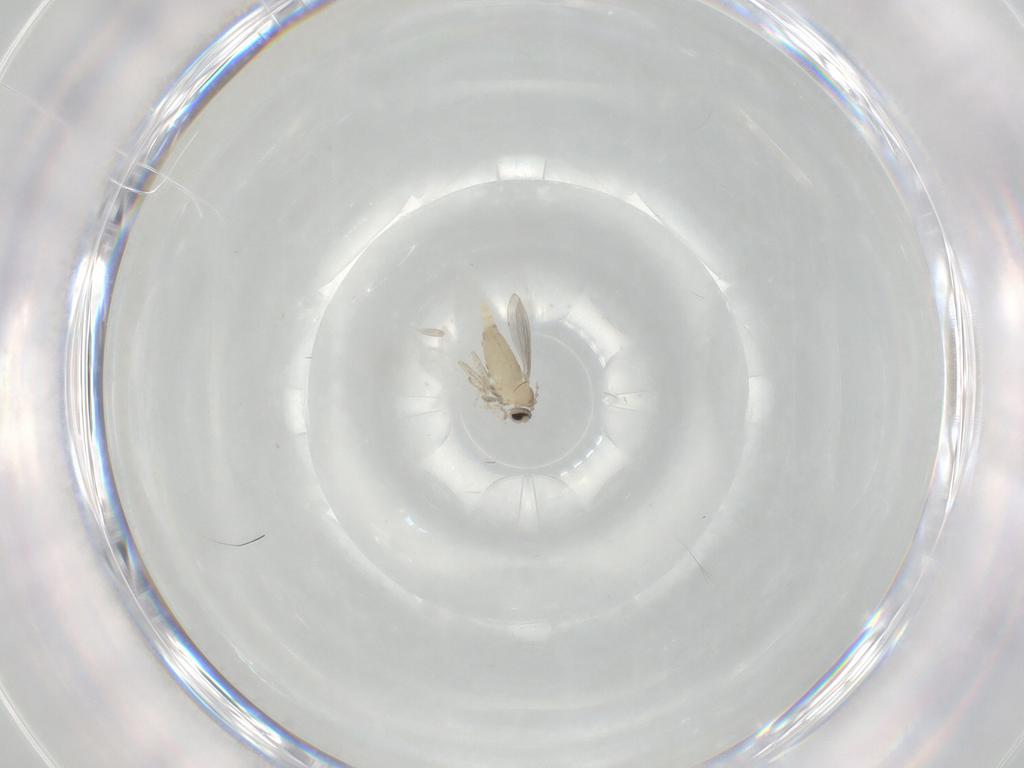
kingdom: Animalia
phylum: Arthropoda
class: Insecta
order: Diptera
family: Cecidomyiidae
